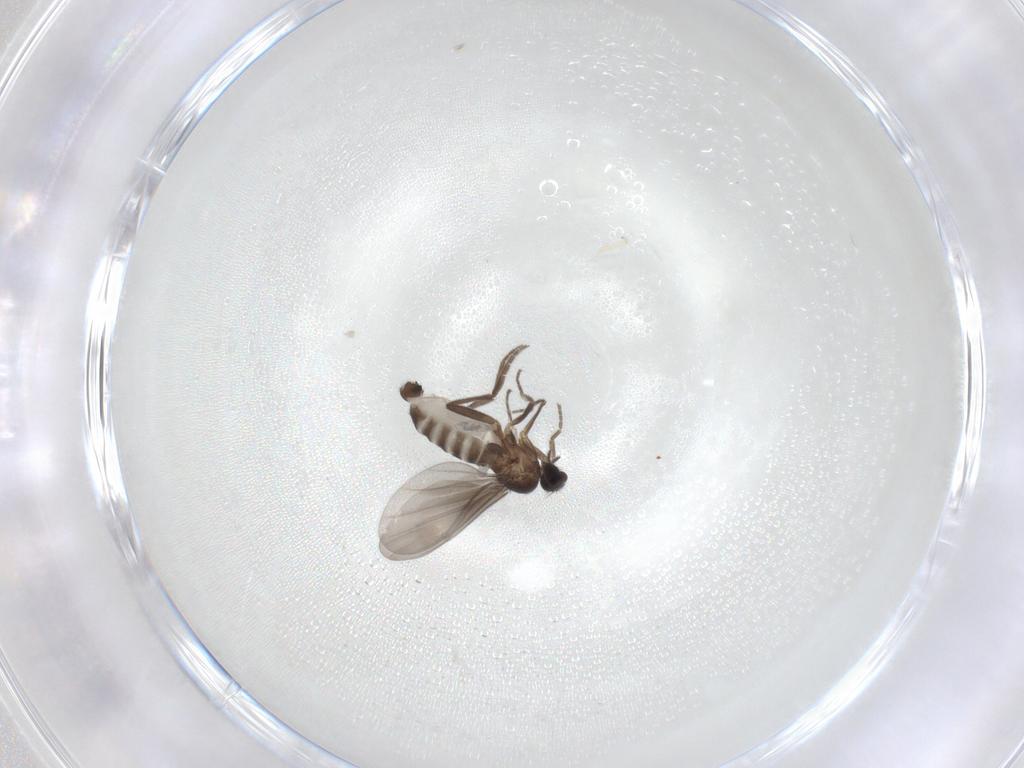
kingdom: Animalia
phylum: Arthropoda
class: Insecta
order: Diptera
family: Phoridae
